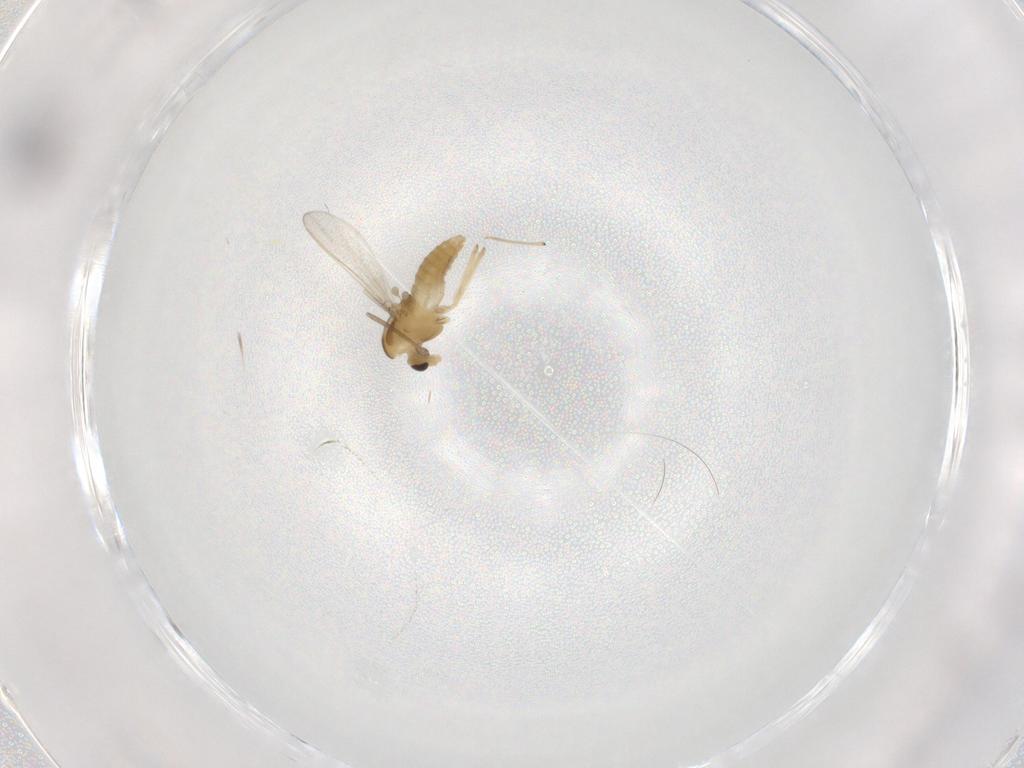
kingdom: Animalia
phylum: Arthropoda
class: Insecta
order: Diptera
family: Chironomidae
